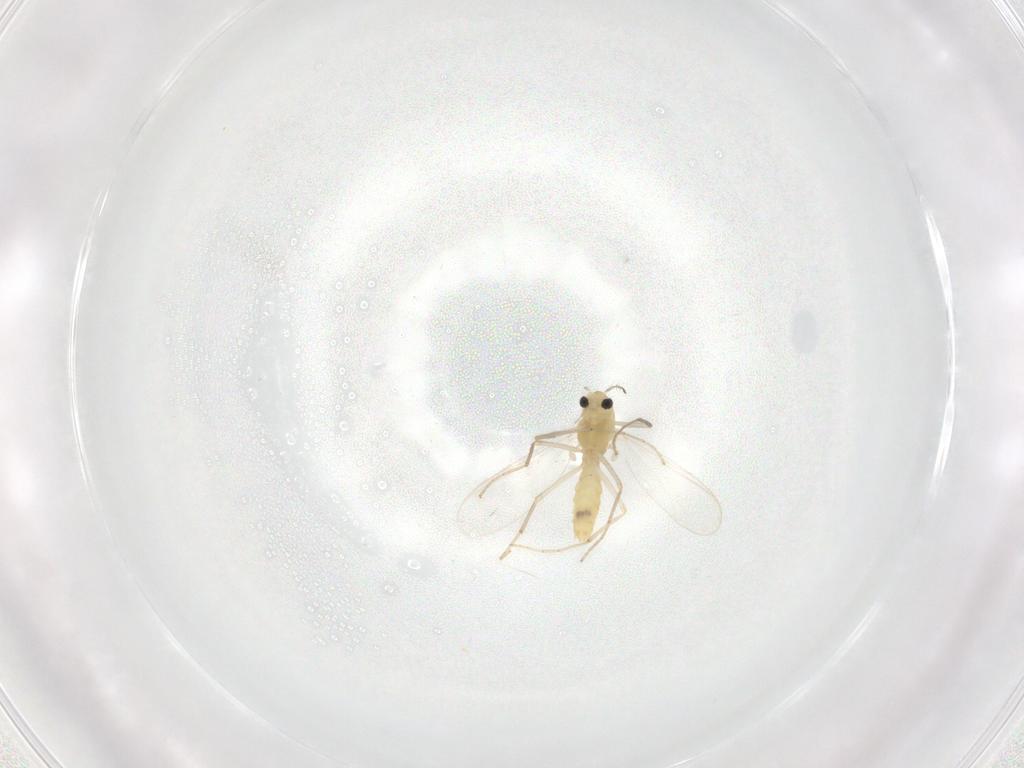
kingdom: Animalia
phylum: Arthropoda
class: Insecta
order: Diptera
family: Chironomidae
